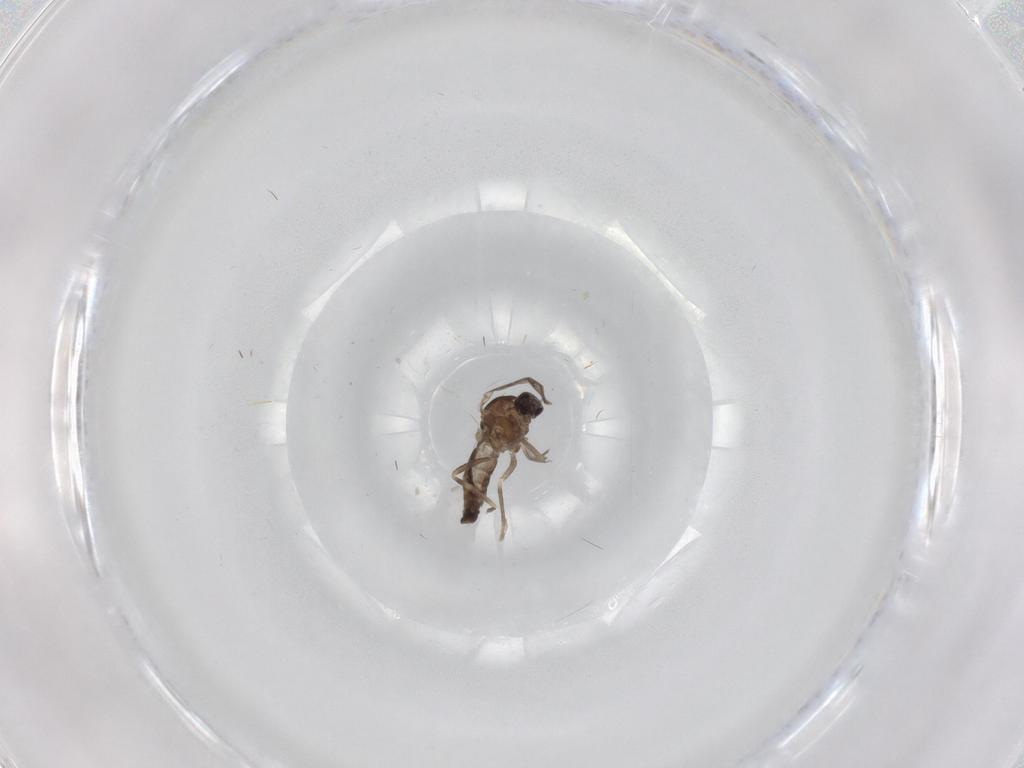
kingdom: Animalia
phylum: Arthropoda
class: Insecta
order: Diptera
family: Ceratopogonidae
